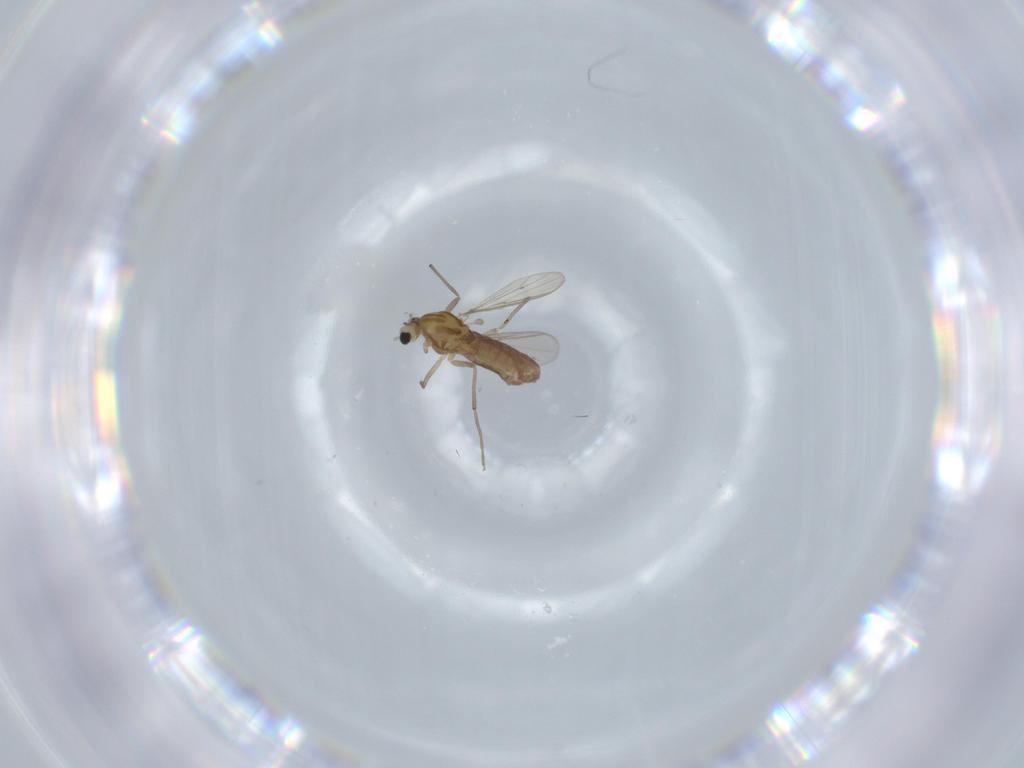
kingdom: Animalia
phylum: Arthropoda
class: Insecta
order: Diptera
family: Chironomidae
